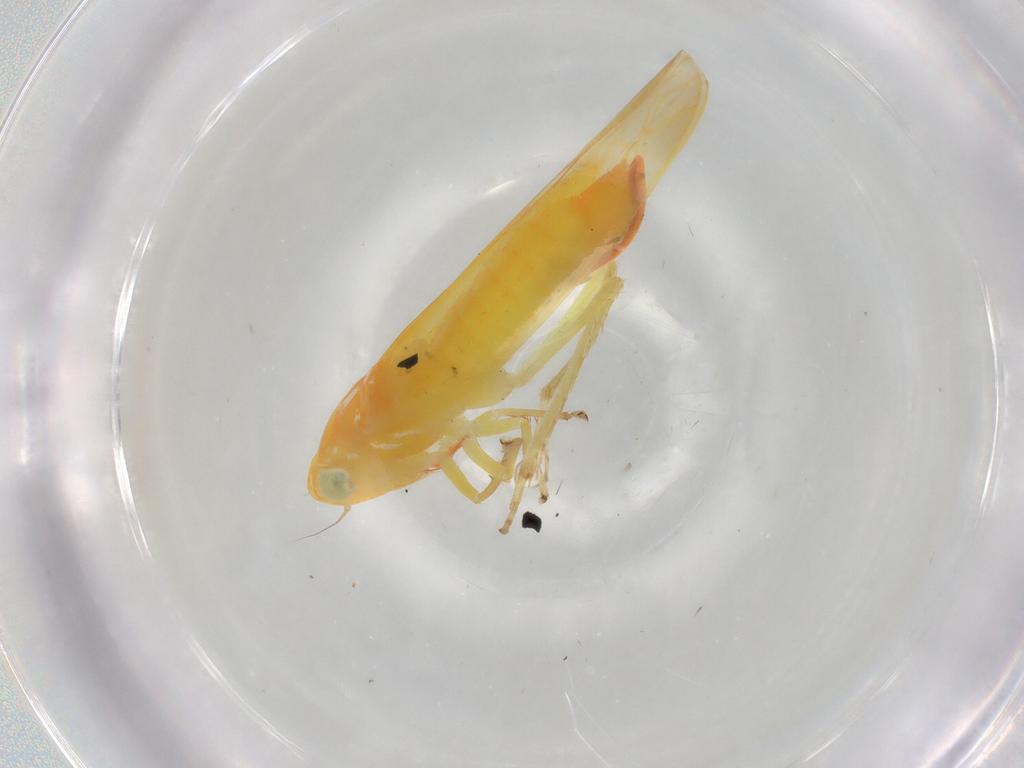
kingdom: Animalia
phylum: Arthropoda
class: Insecta
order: Hemiptera
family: Cicadellidae
